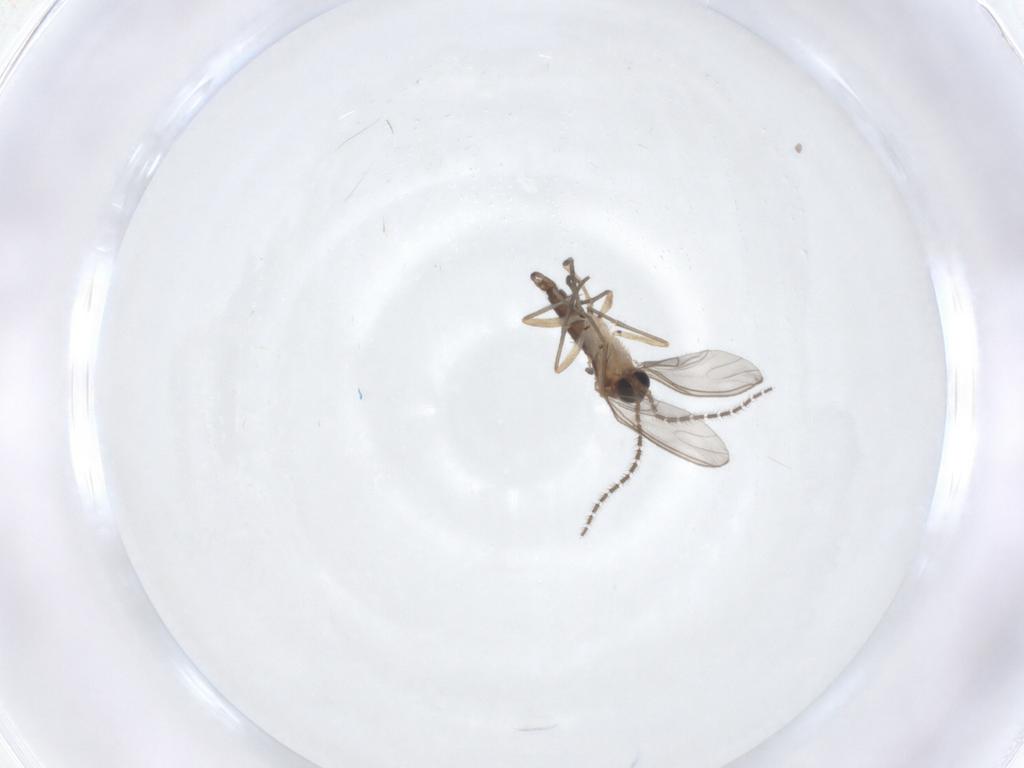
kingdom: Animalia
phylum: Arthropoda
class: Insecta
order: Diptera
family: Sciaridae
